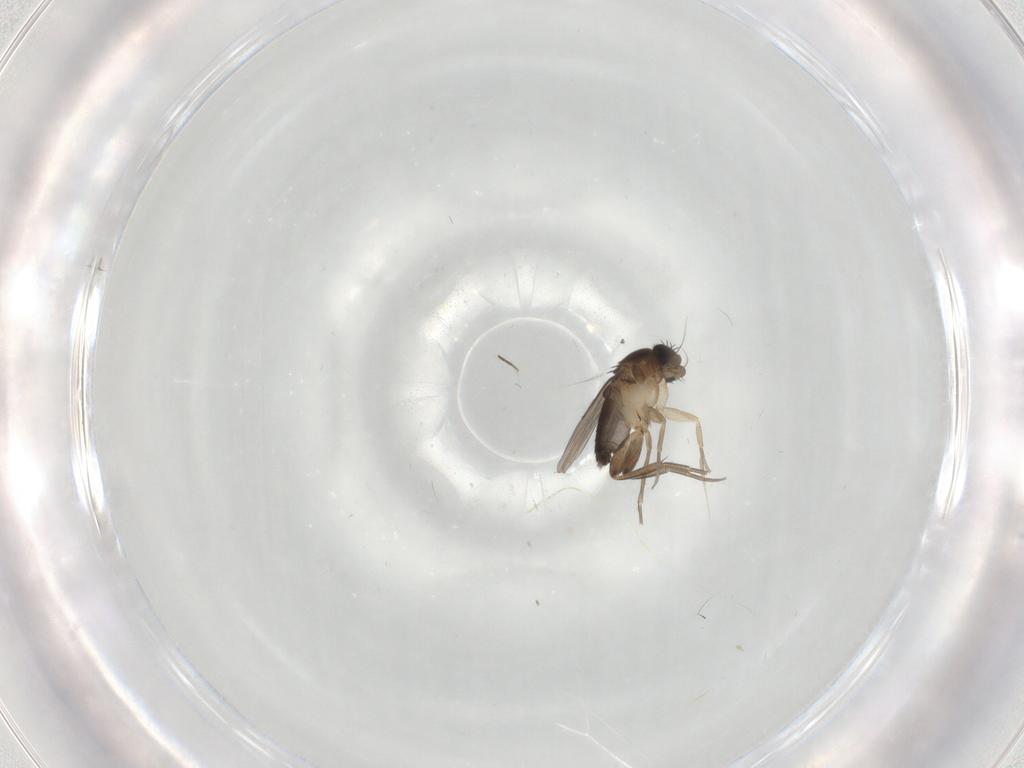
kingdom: Animalia
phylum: Arthropoda
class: Insecta
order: Diptera
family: Phoridae
